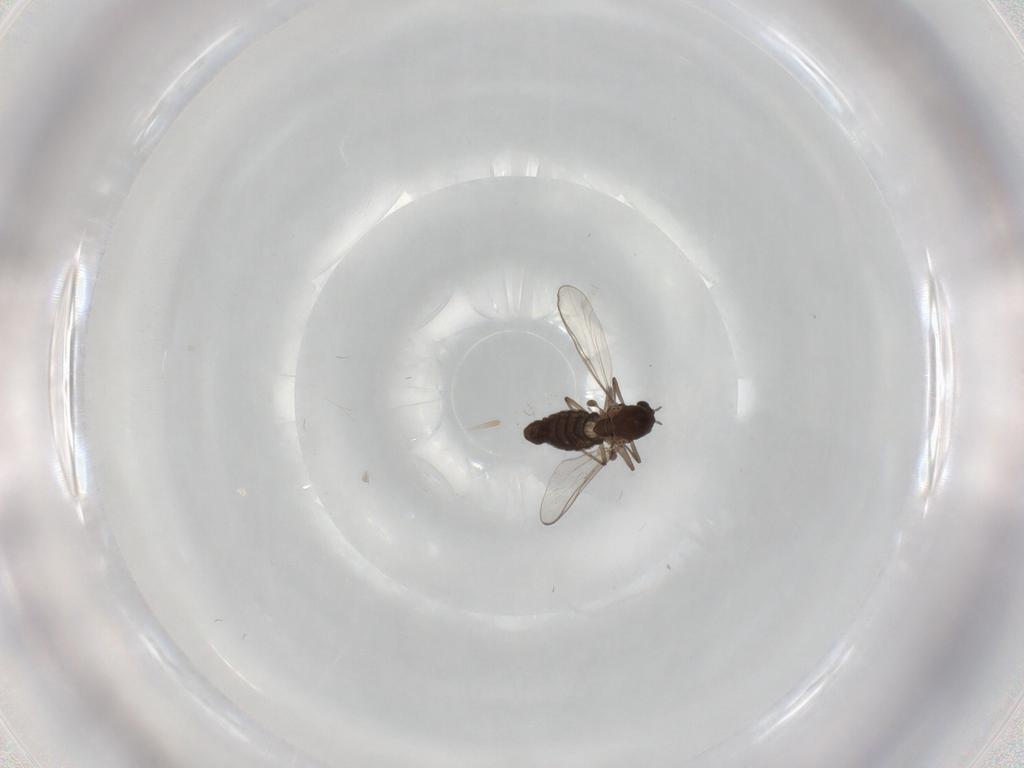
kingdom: Animalia
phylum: Arthropoda
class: Insecta
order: Diptera
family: Chironomidae
